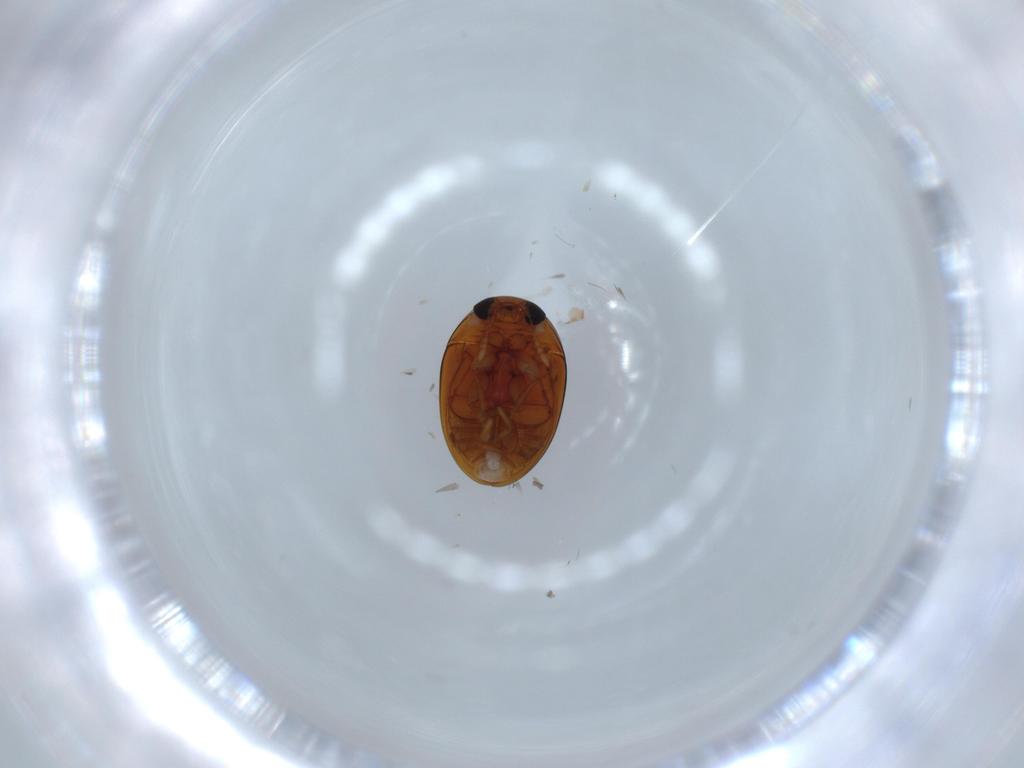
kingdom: Animalia
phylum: Arthropoda
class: Insecta
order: Coleoptera
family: Phalacridae
